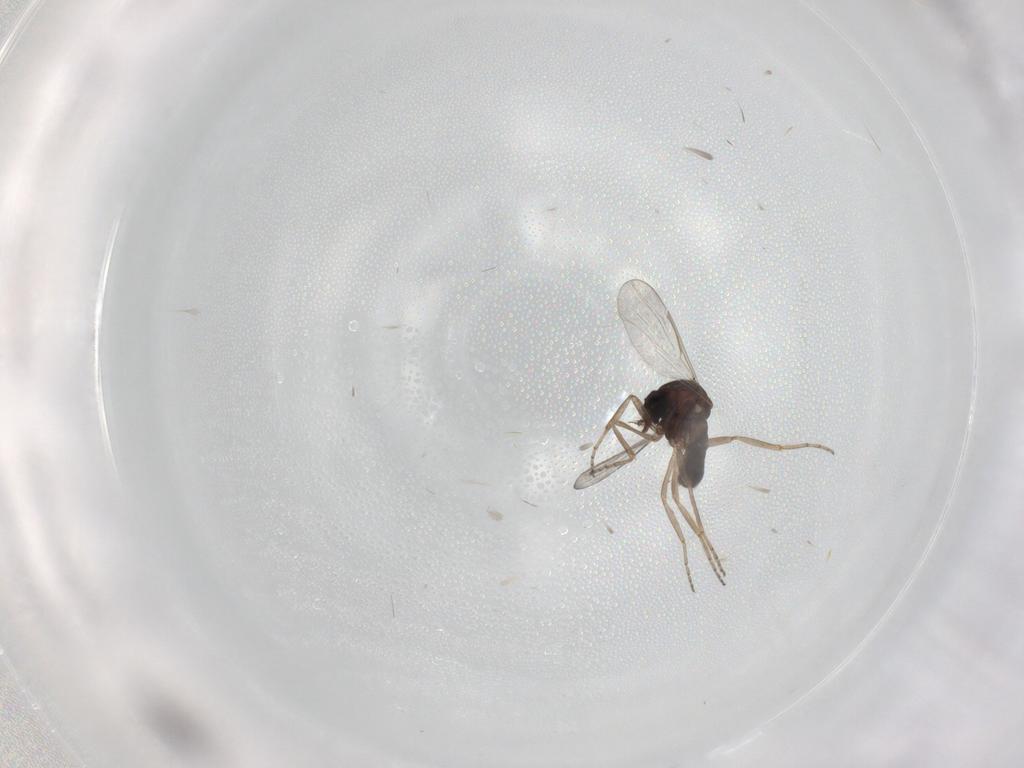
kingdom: Animalia
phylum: Arthropoda
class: Insecta
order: Diptera
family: Ceratopogonidae
